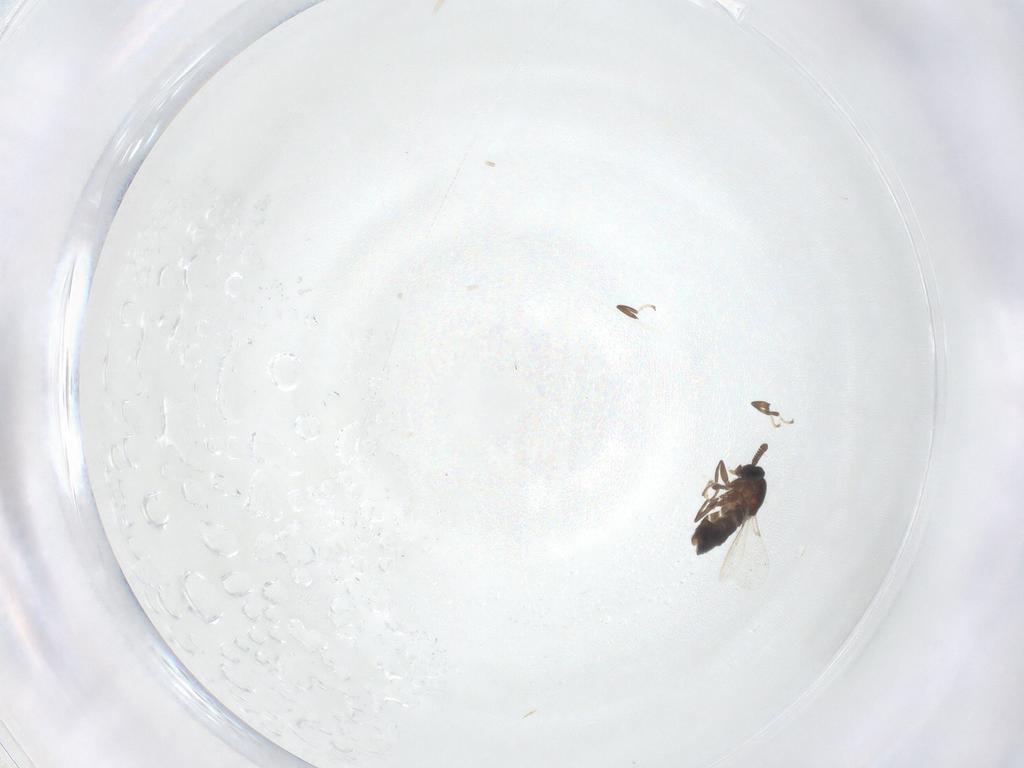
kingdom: Animalia
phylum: Arthropoda
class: Insecta
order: Diptera
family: Scatopsidae
